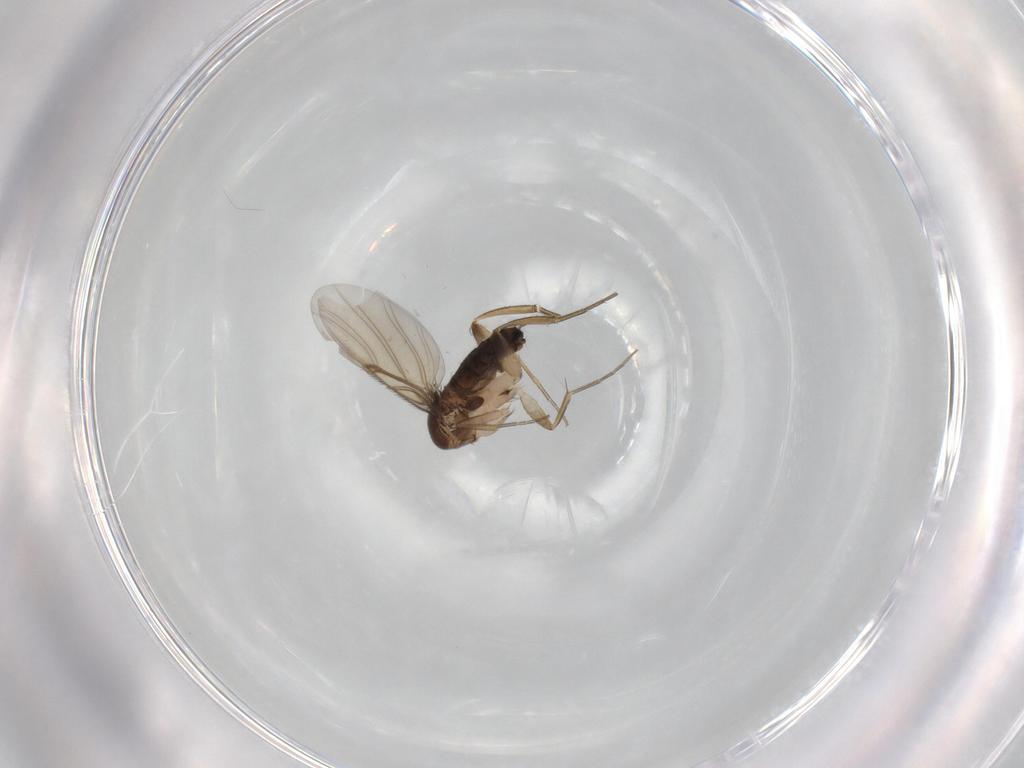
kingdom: Animalia
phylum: Arthropoda
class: Insecta
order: Diptera
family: Phoridae
